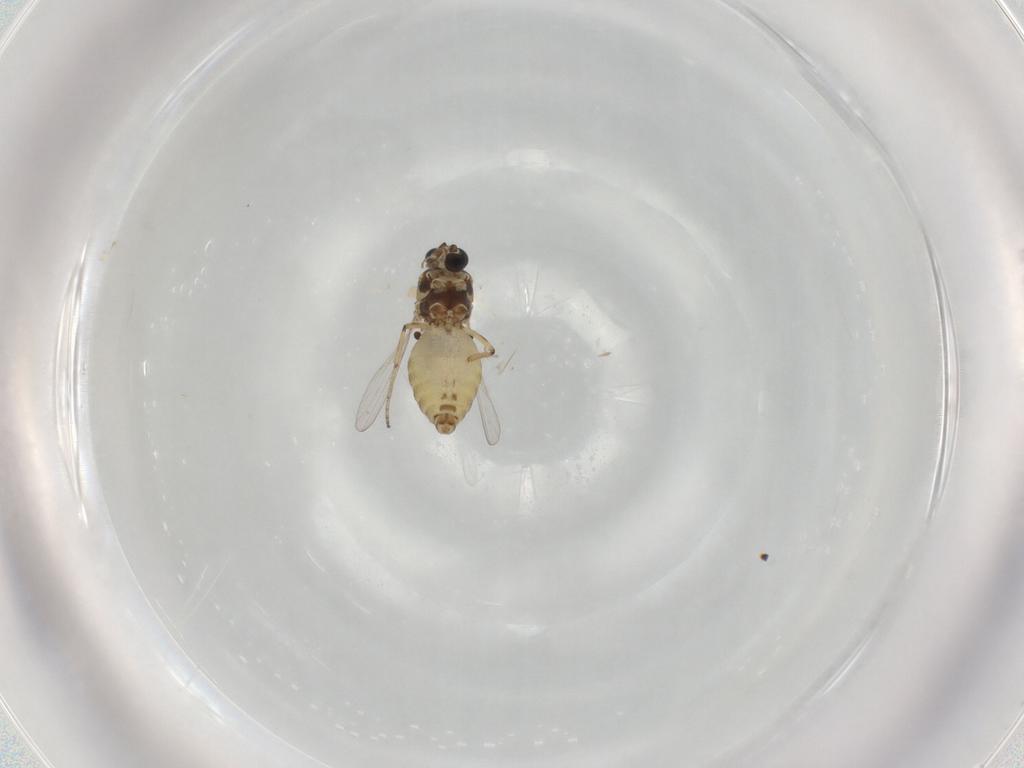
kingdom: Animalia
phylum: Arthropoda
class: Insecta
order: Diptera
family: Ceratopogonidae
